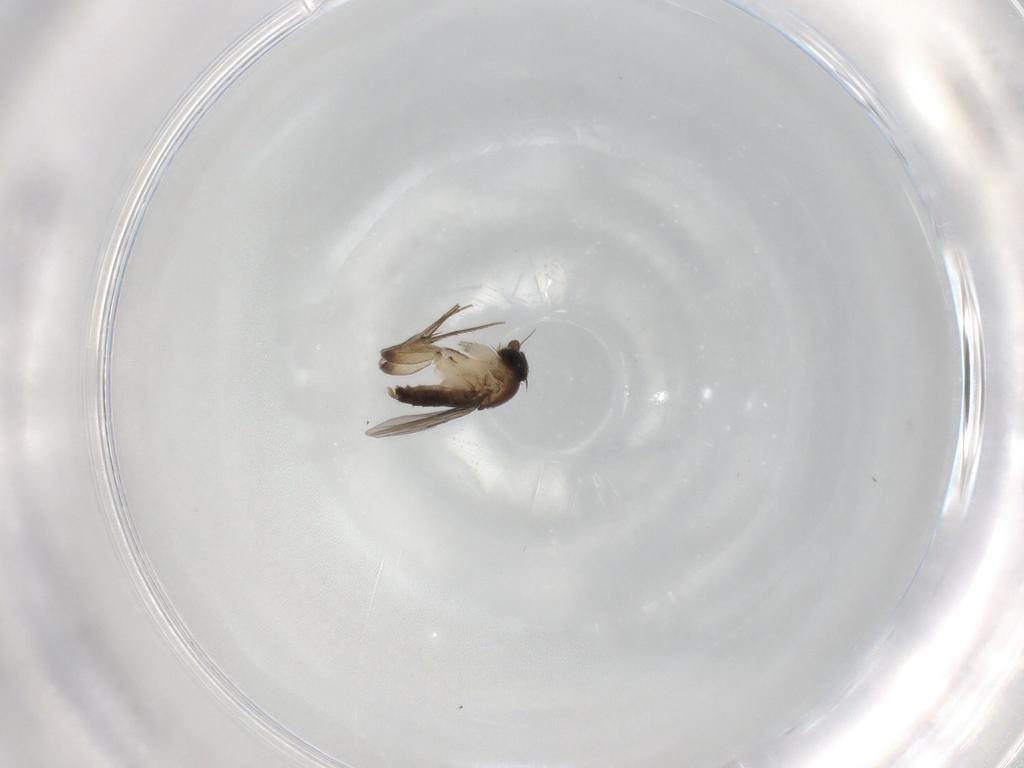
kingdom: Animalia
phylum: Arthropoda
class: Insecta
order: Diptera
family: Phoridae
